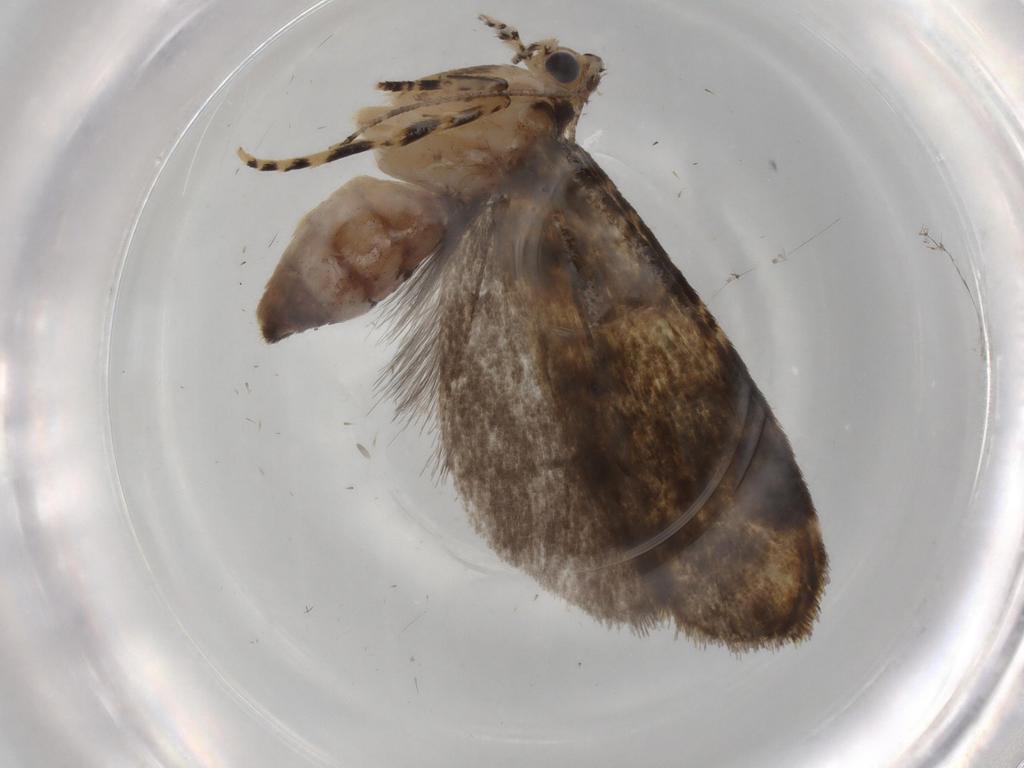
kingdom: Animalia
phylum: Arthropoda
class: Insecta
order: Lepidoptera
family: Tineidae
